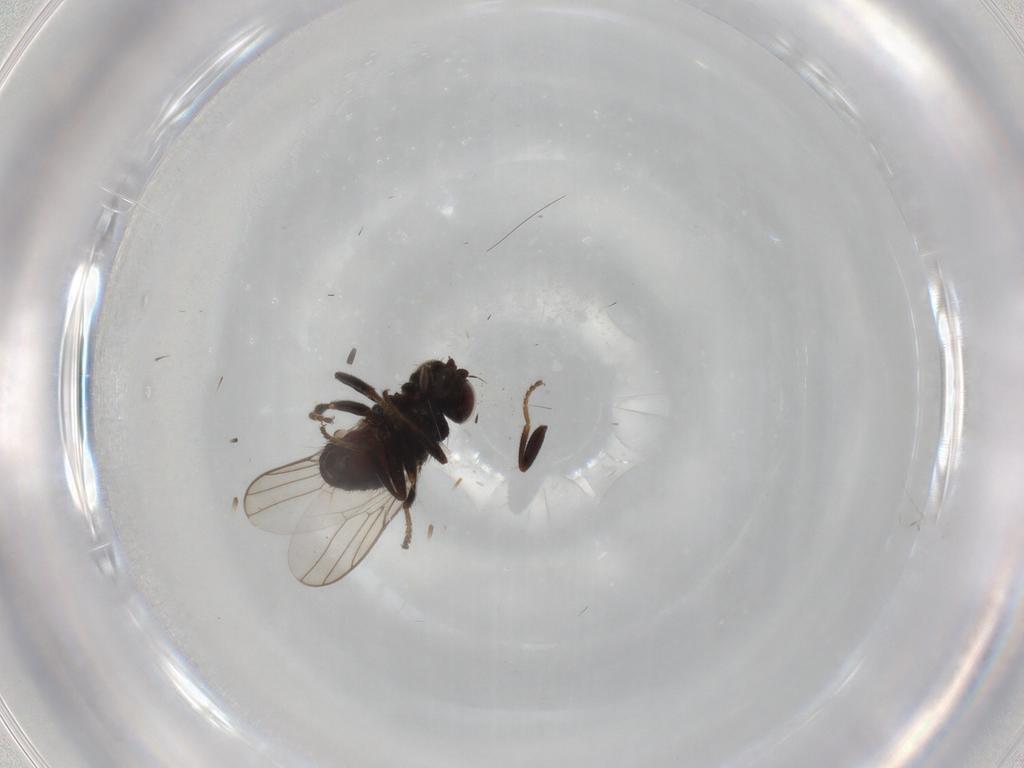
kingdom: Animalia
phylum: Arthropoda
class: Insecta
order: Diptera
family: Chloropidae
